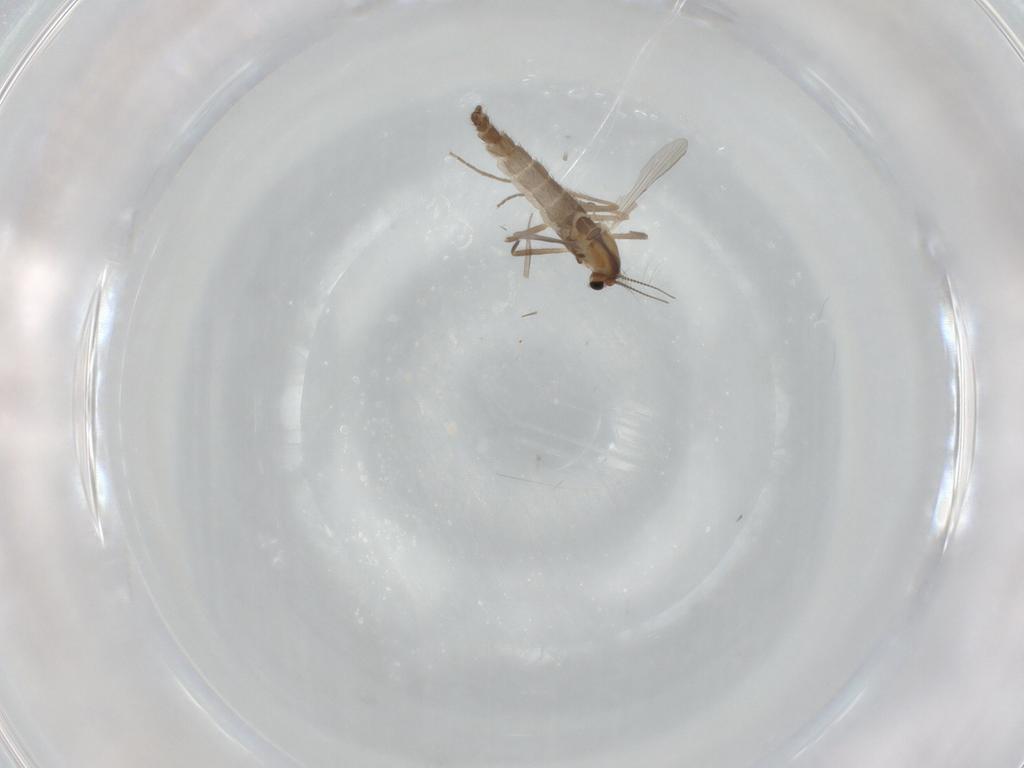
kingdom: Animalia
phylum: Arthropoda
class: Insecta
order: Diptera
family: Chironomidae
